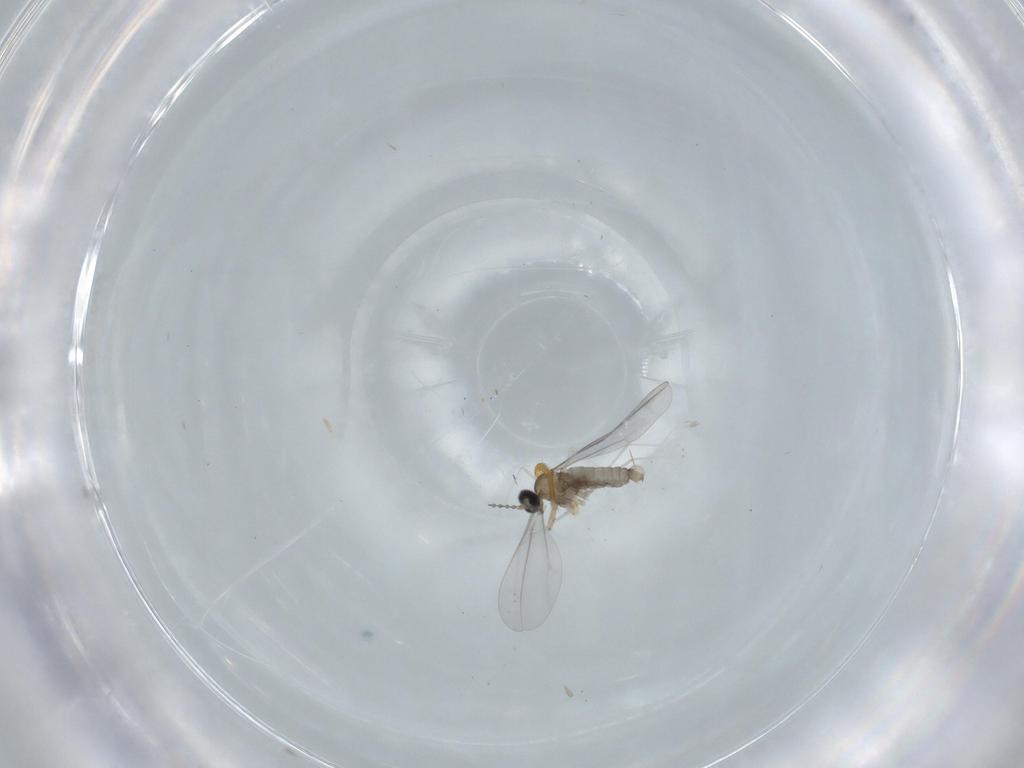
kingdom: Animalia
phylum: Arthropoda
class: Insecta
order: Diptera
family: Cecidomyiidae
